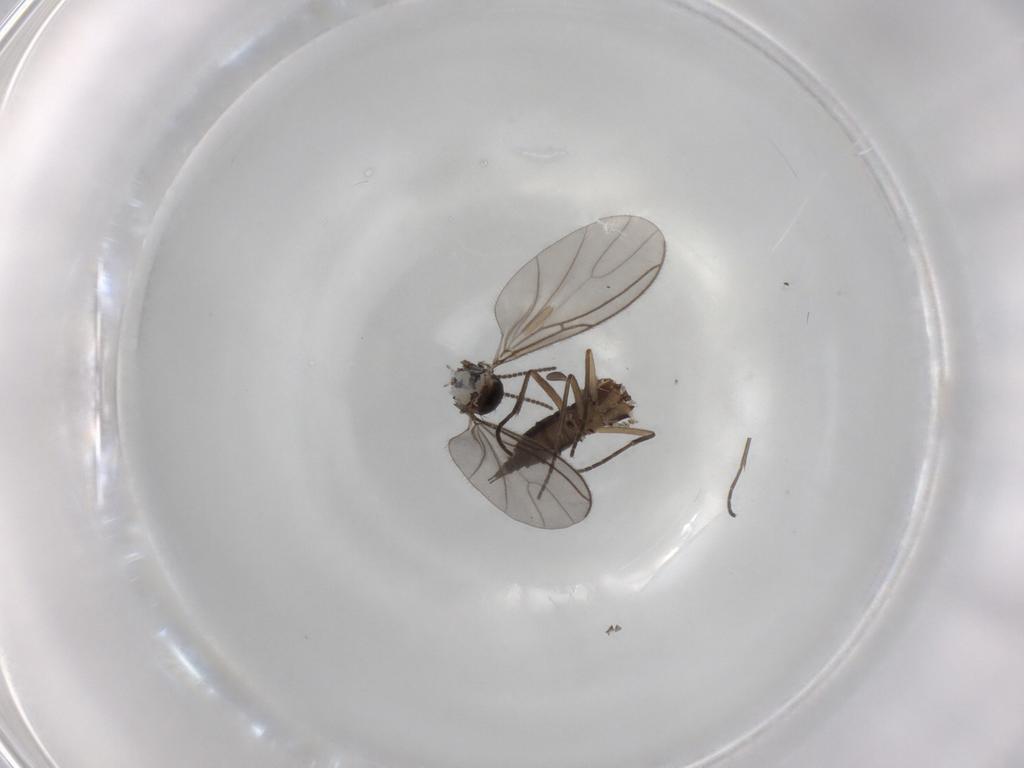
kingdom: Animalia
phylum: Arthropoda
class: Insecta
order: Diptera
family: Sciaridae
